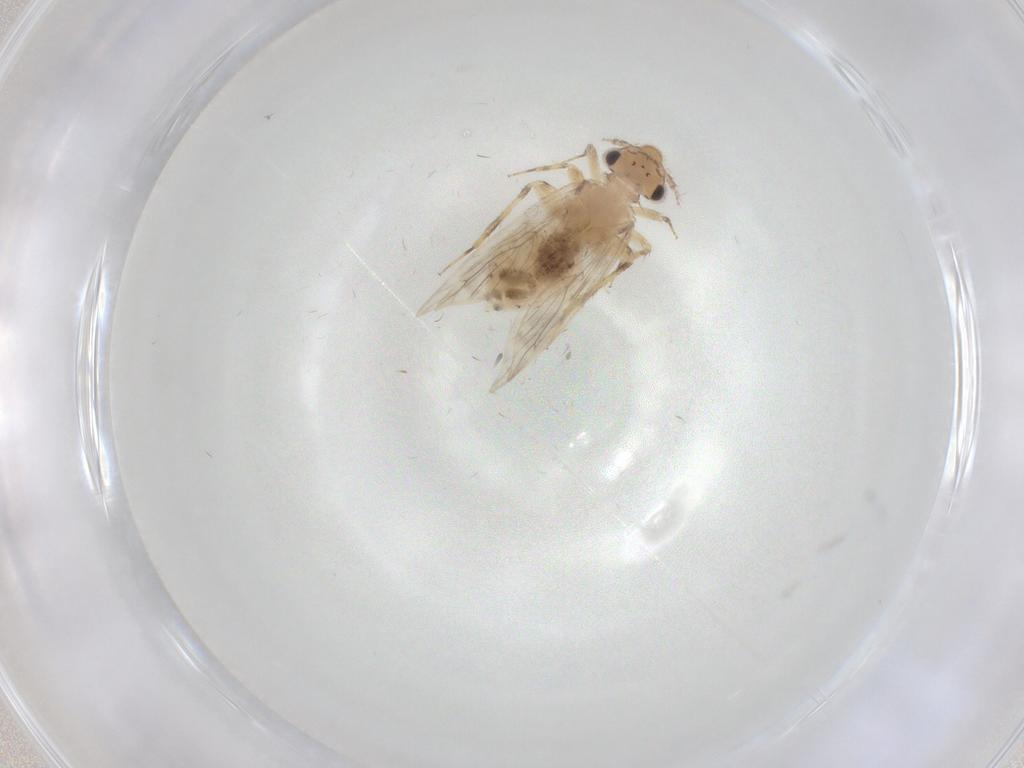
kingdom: Animalia
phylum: Arthropoda
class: Insecta
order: Psocodea
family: Lepidopsocidae
